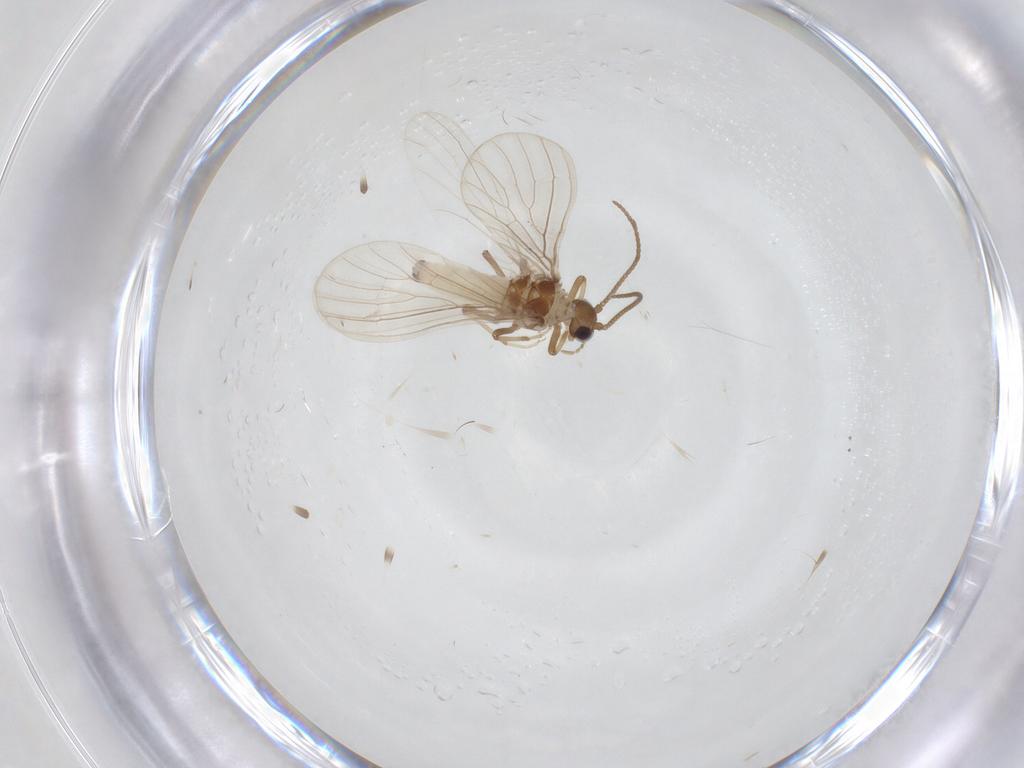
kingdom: Animalia
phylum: Arthropoda
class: Insecta
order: Neuroptera
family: Coniopterygidae
